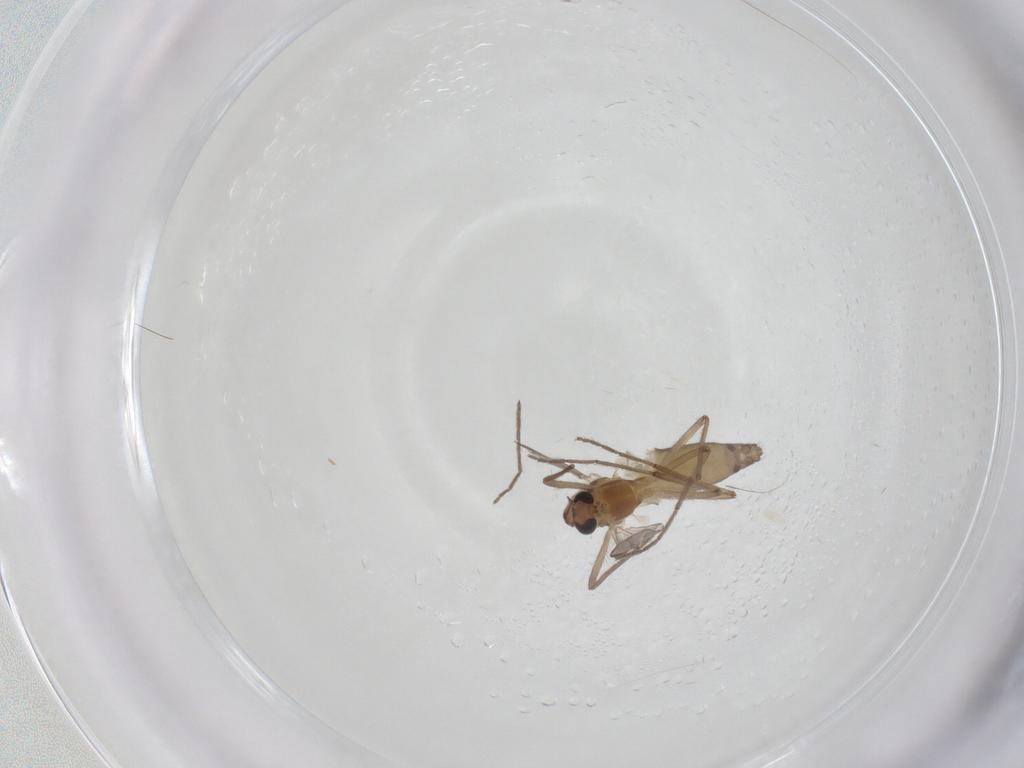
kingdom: Animalia
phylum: Arthropoda
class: Insecta
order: Diptera
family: Chironomidae
